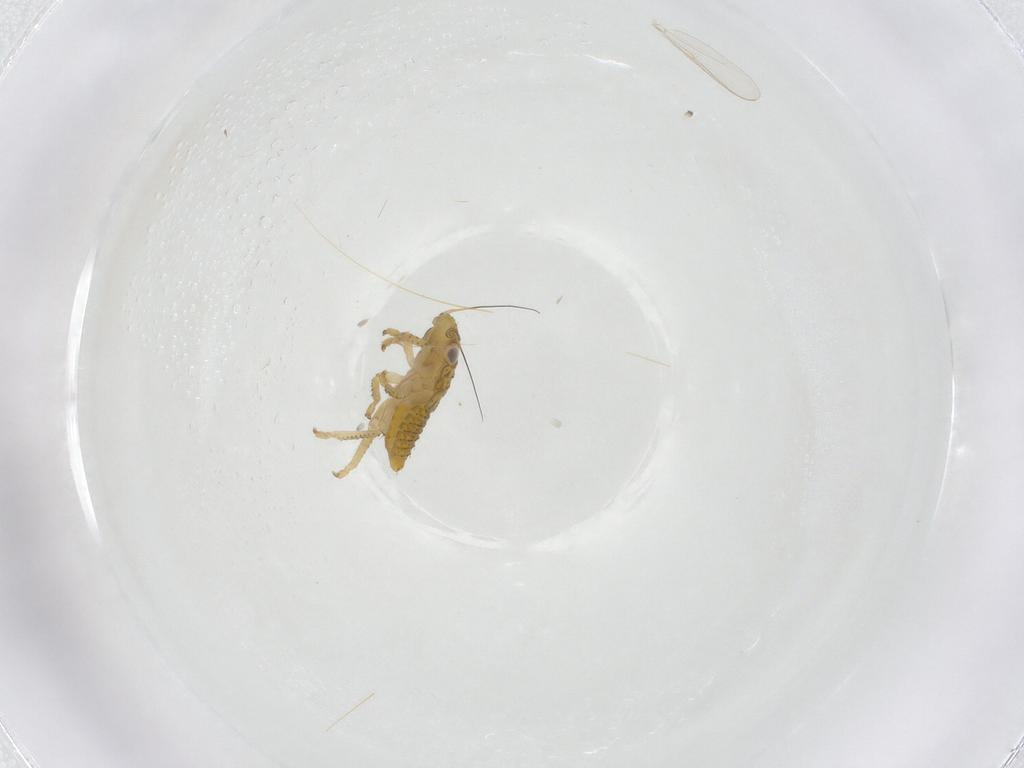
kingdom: Animalia
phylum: Arthropoda
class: Insecta
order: Hemiptera
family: Cicadellidae
